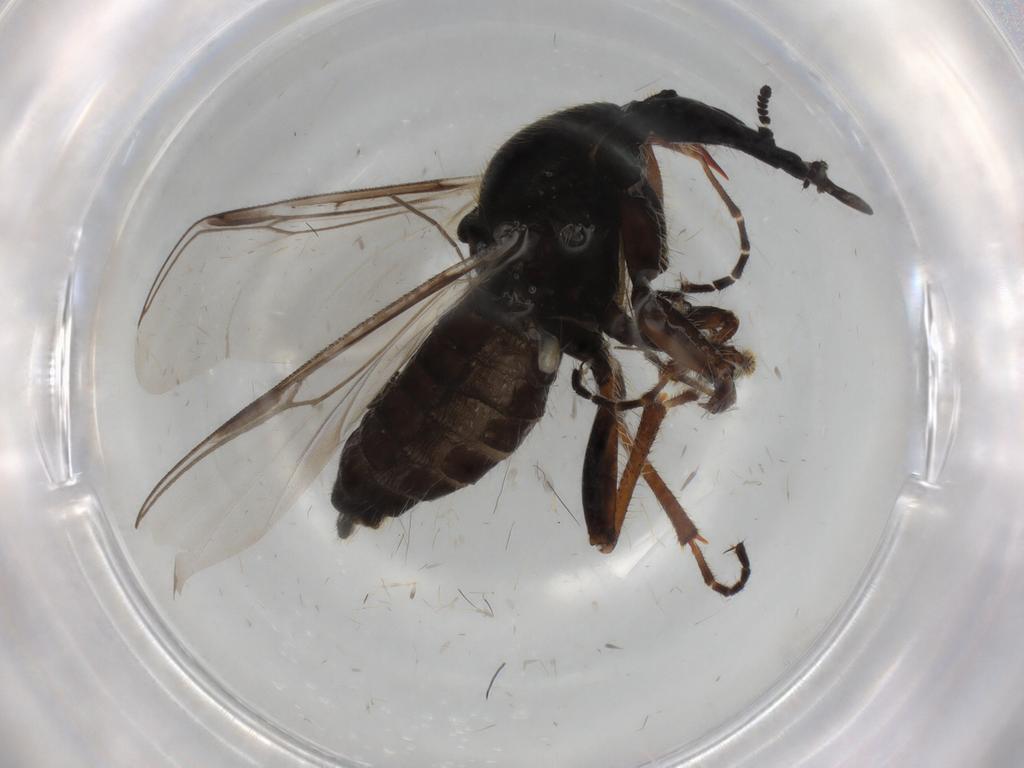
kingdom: Animalia
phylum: Arthropoda
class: Insecta
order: Diptera
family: Bibionidae
